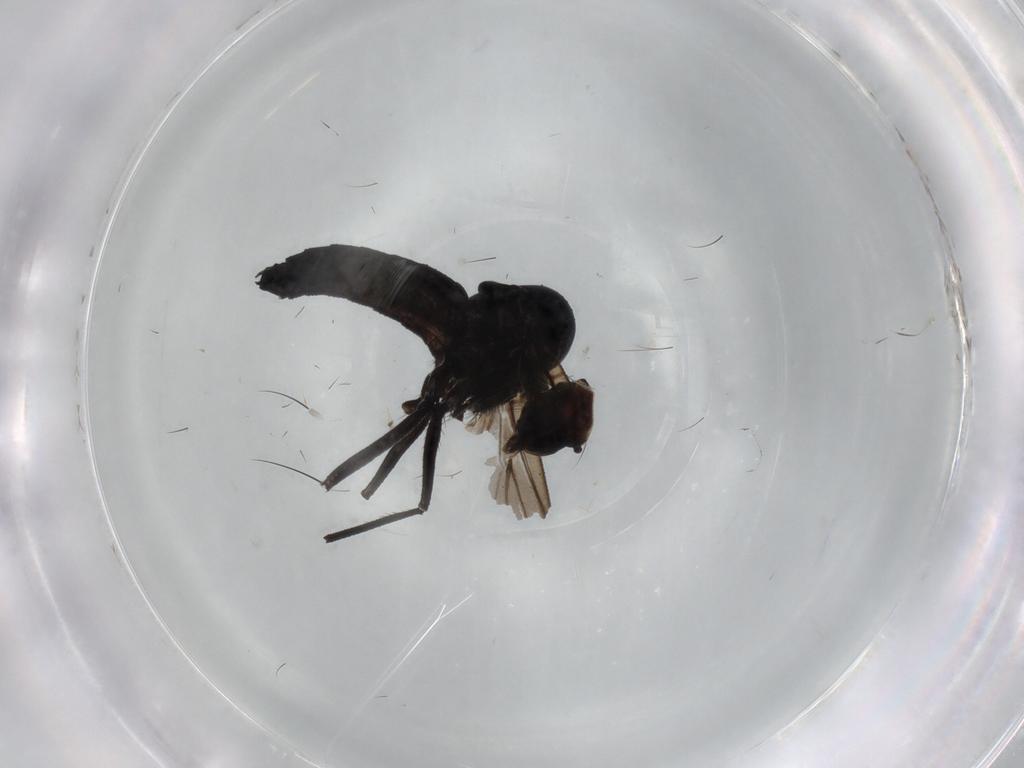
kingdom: Animalia
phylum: Arthropoda
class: Insecta
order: Diptera
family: Hybotidae
